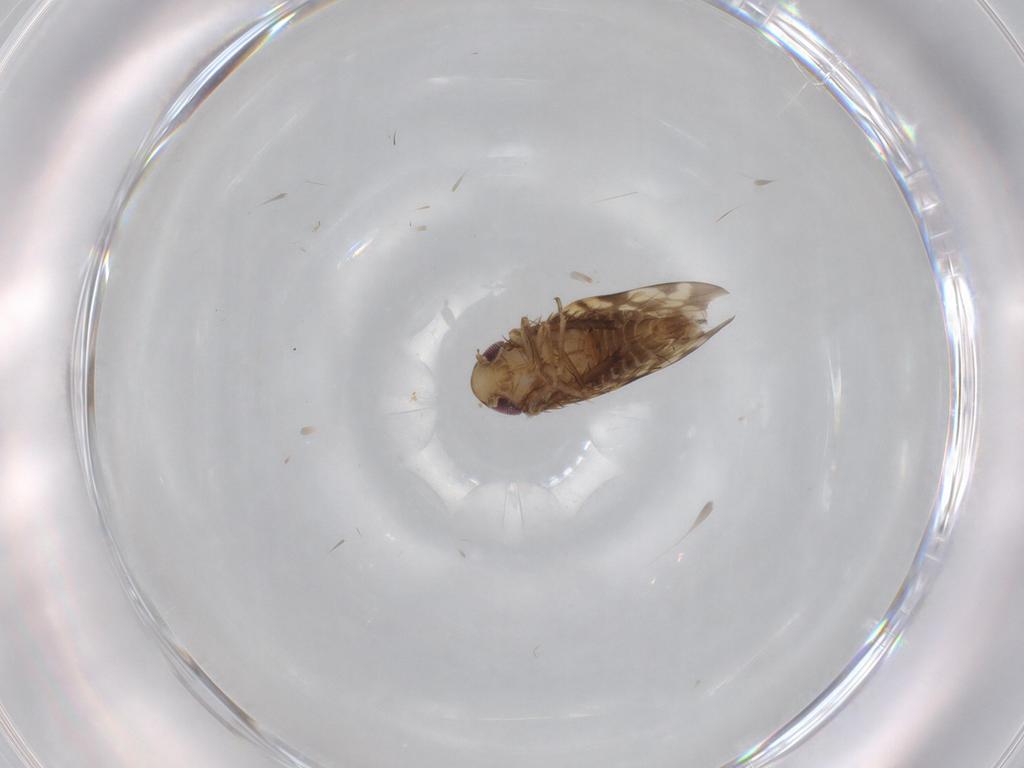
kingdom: Animalia
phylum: Arthropoda
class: Insecta
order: Hemiptera
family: Cicadellidae
